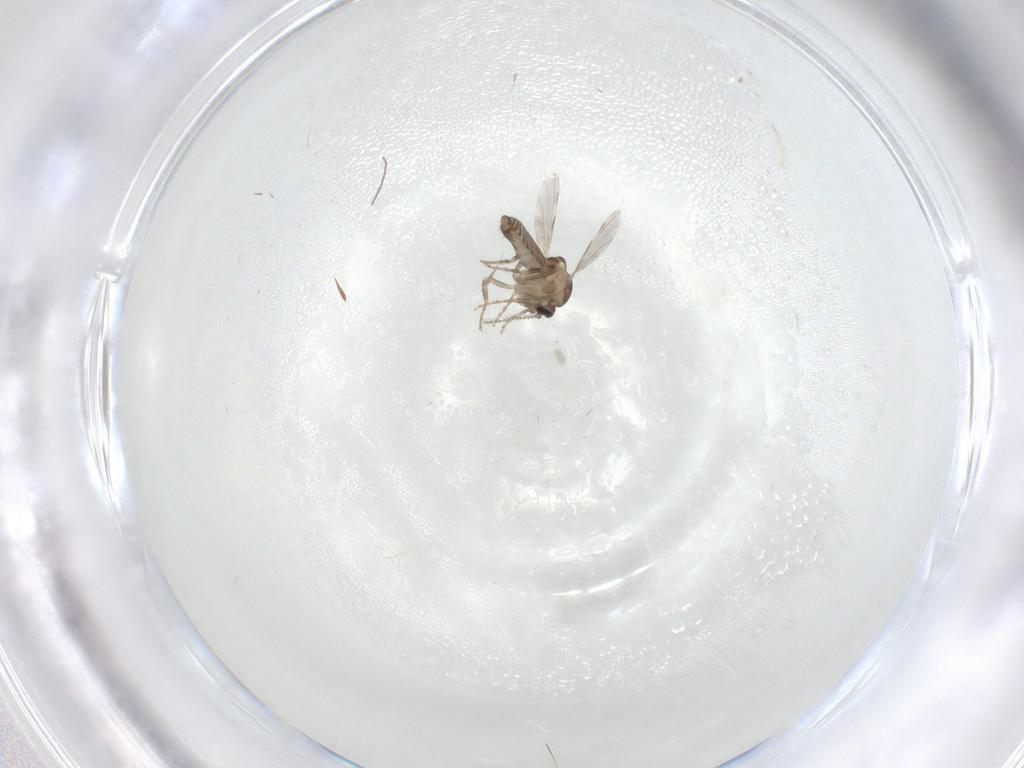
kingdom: Animalia
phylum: Arthropoda
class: Insecta
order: Diptera
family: Ceratopogonidae
